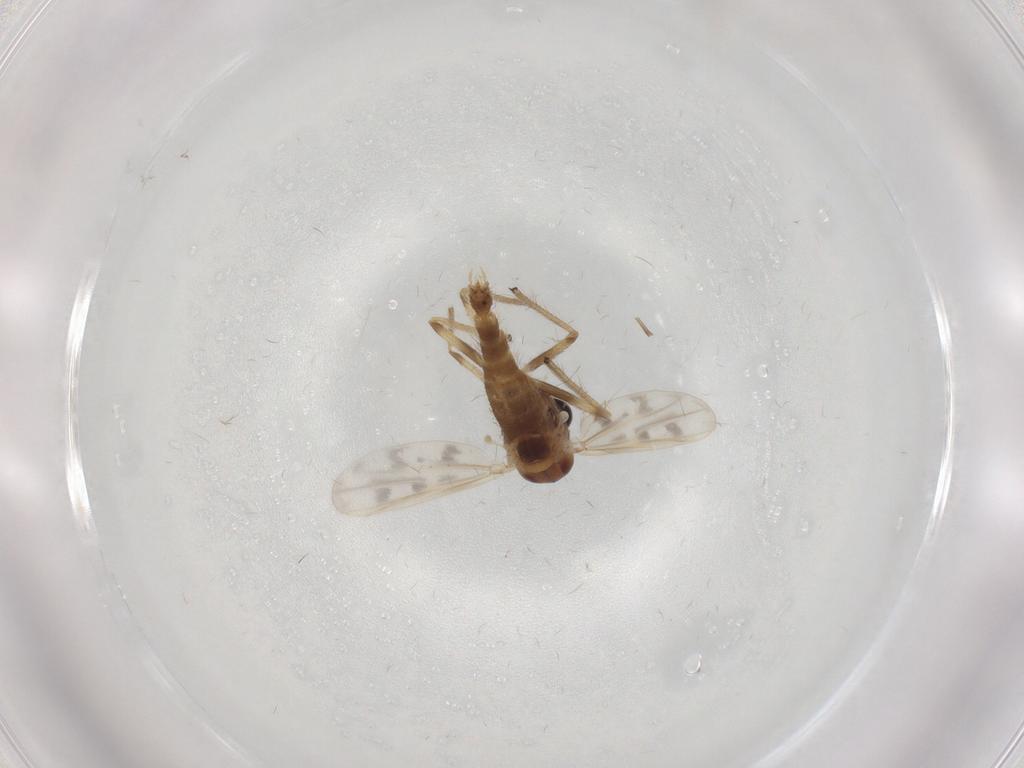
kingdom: Animalia
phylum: Arthropoda
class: Insecta
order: Diptera
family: Chironomidae
